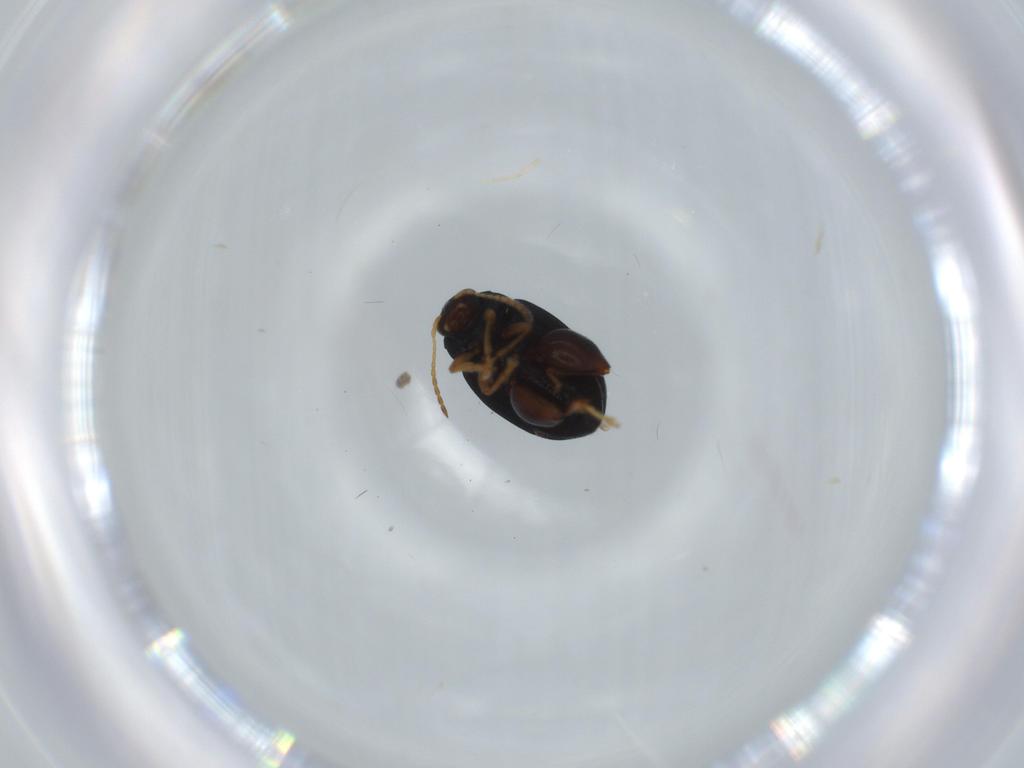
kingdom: Animalia
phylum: Arthropoda
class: Insecta
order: Coleoptera
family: Chrysomelidae
